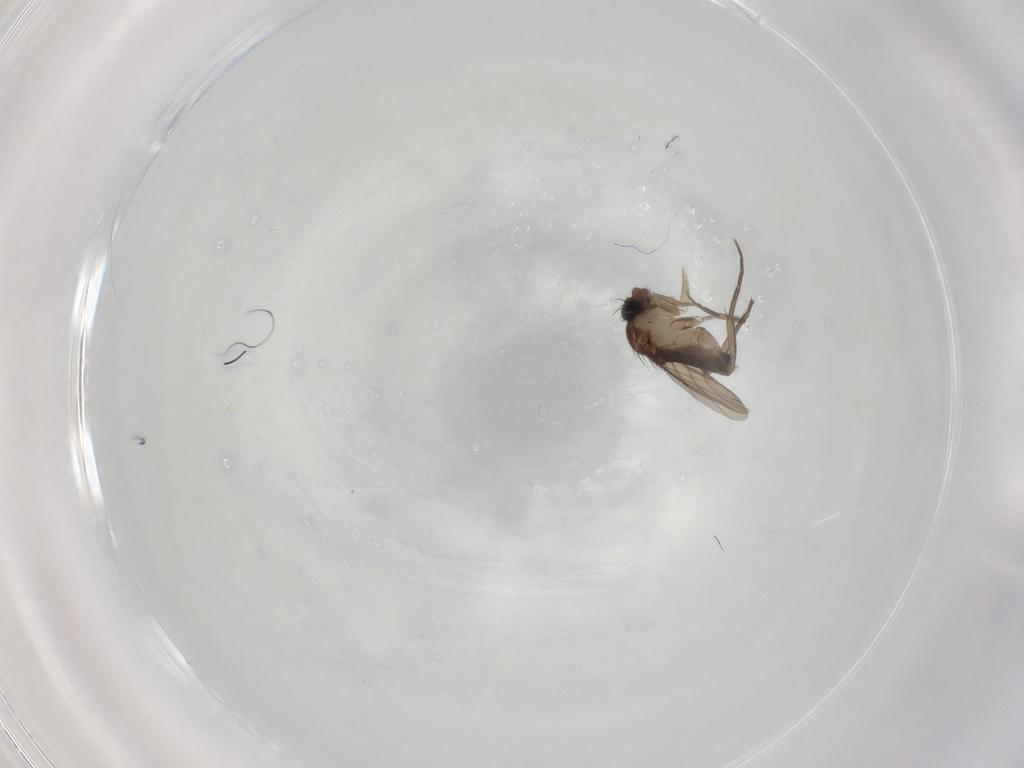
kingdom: Animalia
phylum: Arthropoda
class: Insecta
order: Diptera
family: Phoridae
